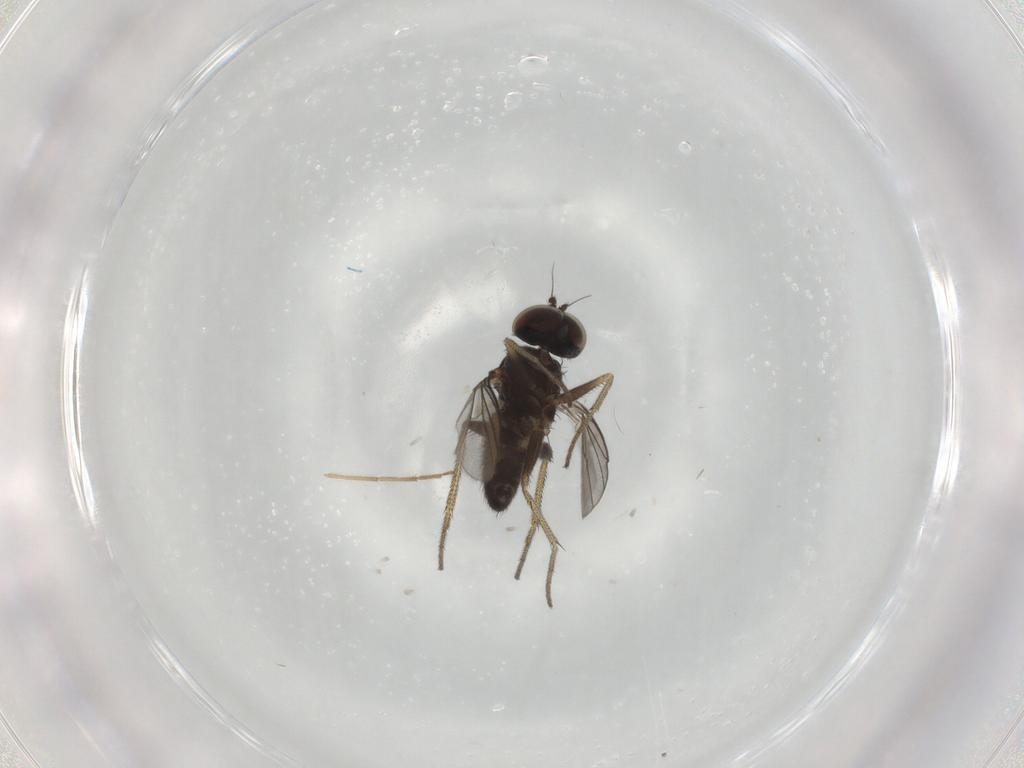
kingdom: Animalia
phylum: Arthropoda
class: Insecta
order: Diptera
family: Dolichopodidae
